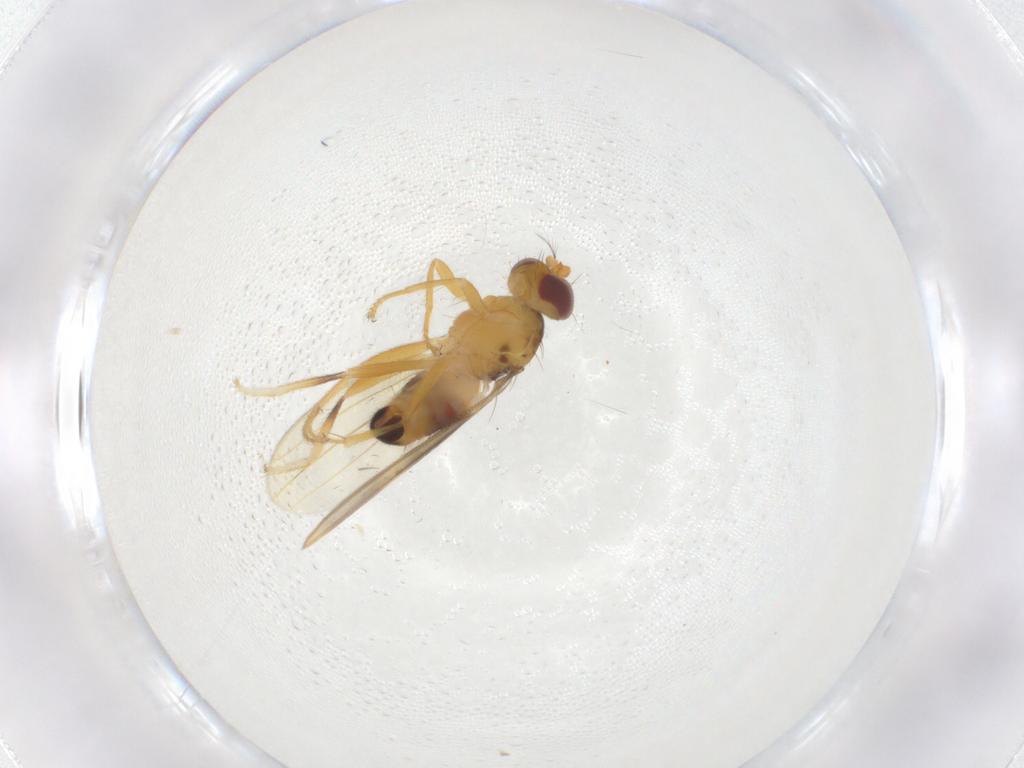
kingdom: Animalia
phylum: Arthropoda
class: Insecta
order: Diptera
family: Periscelididae
